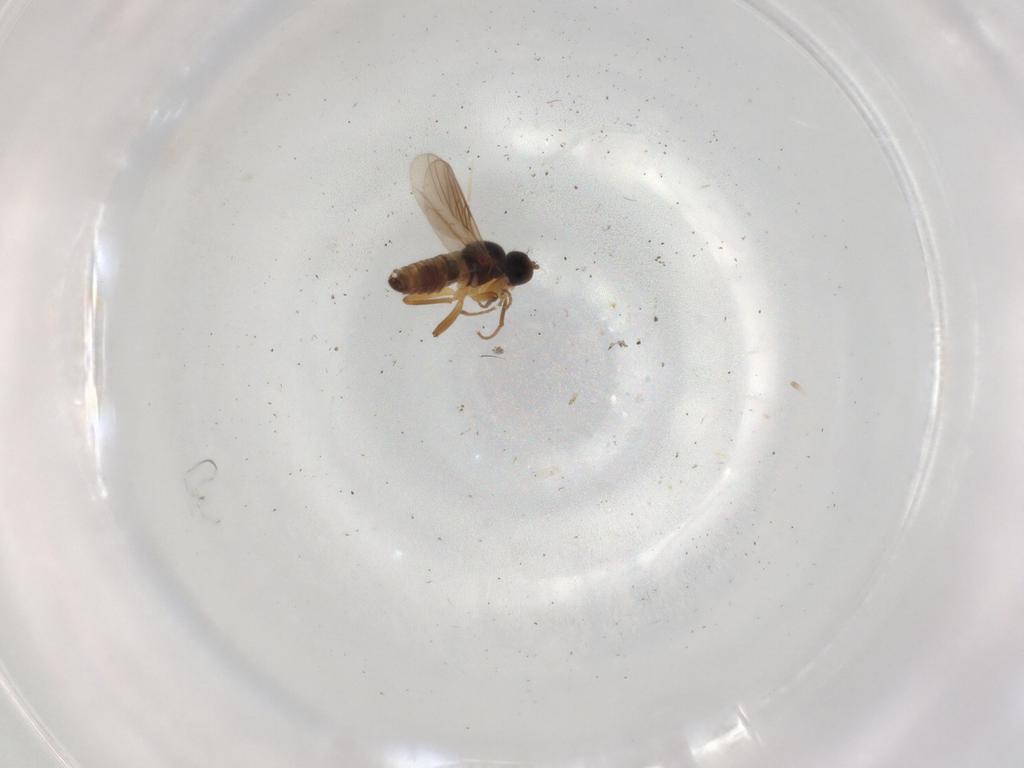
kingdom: Animalia
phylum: Arthropoda
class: Insecta
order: Diptera
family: Hybotidae
